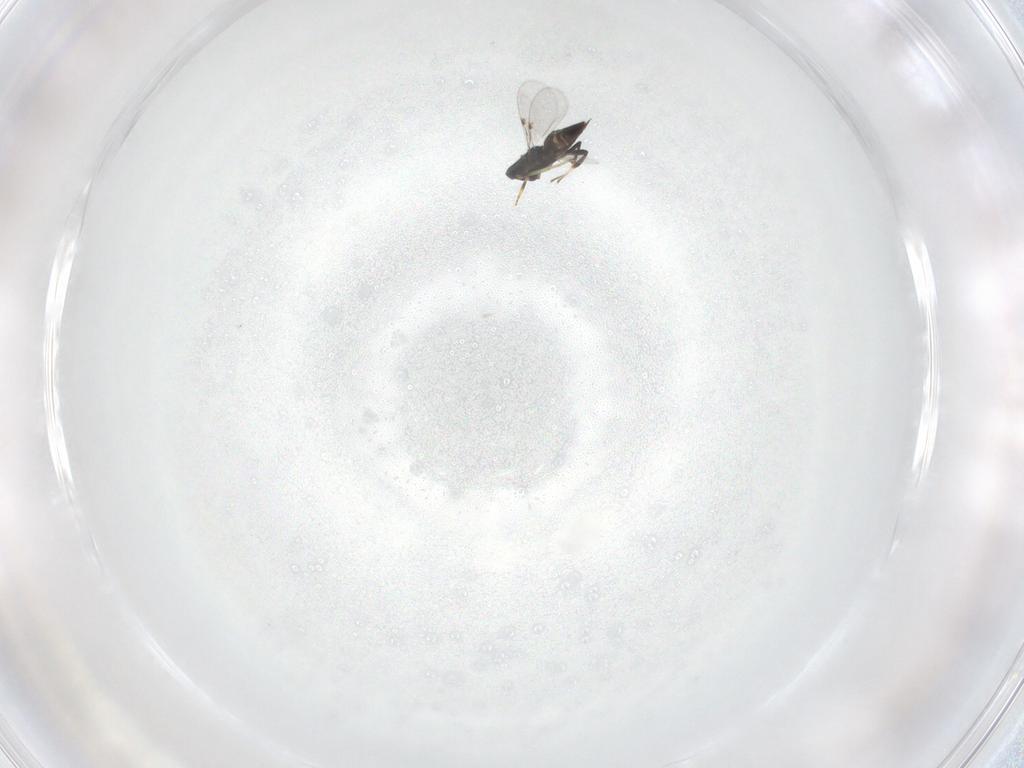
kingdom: Animalia
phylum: Arthropoda
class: Insecta
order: Hymenoptera
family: Encyrtidae
